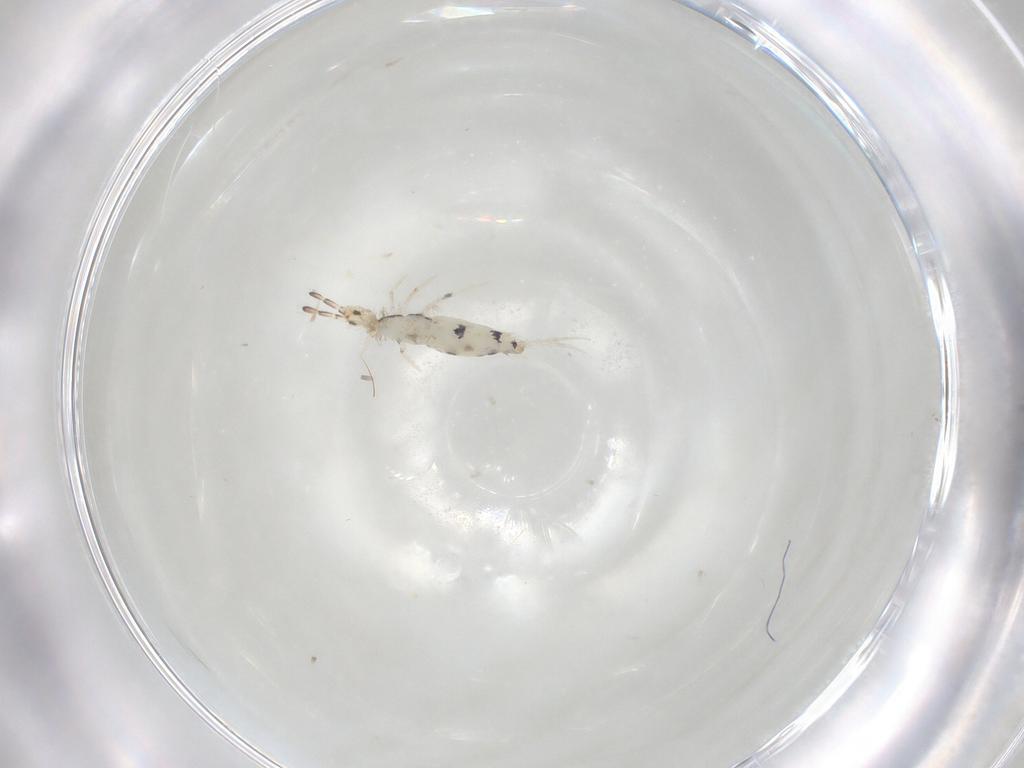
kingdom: Animalia
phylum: Arthropoda
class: Collembola
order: Entomobryomorpha
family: Entomobryidae
